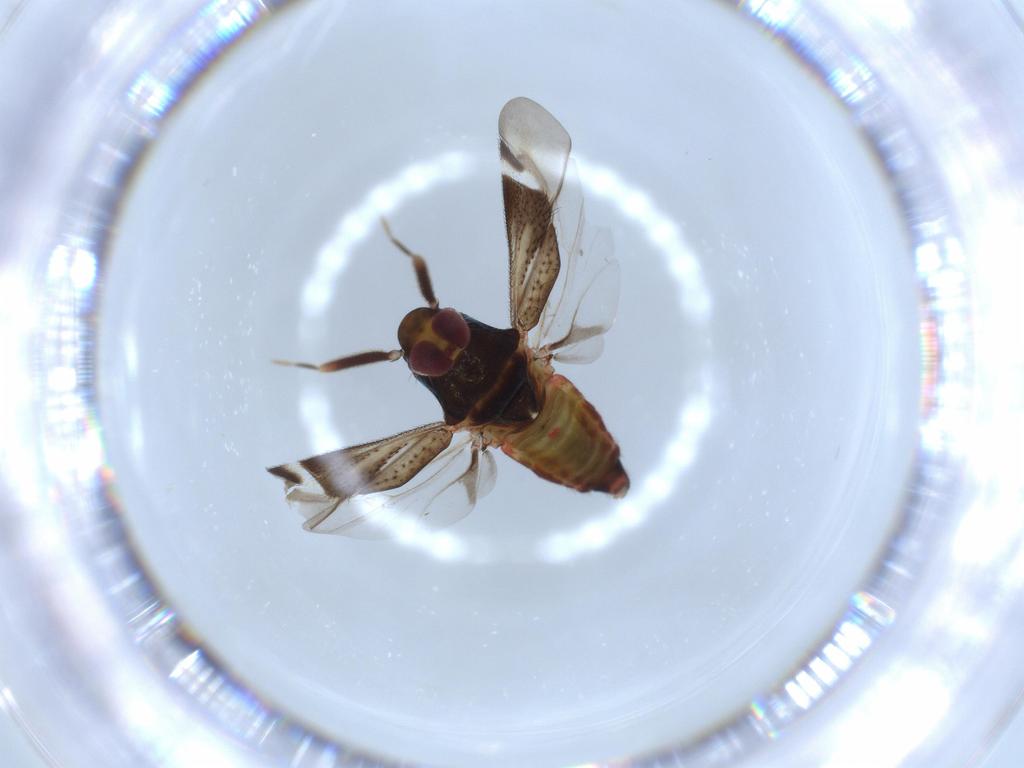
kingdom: Animalia
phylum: Arthropoda
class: Insecta
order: Hemiptera
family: Miridae
